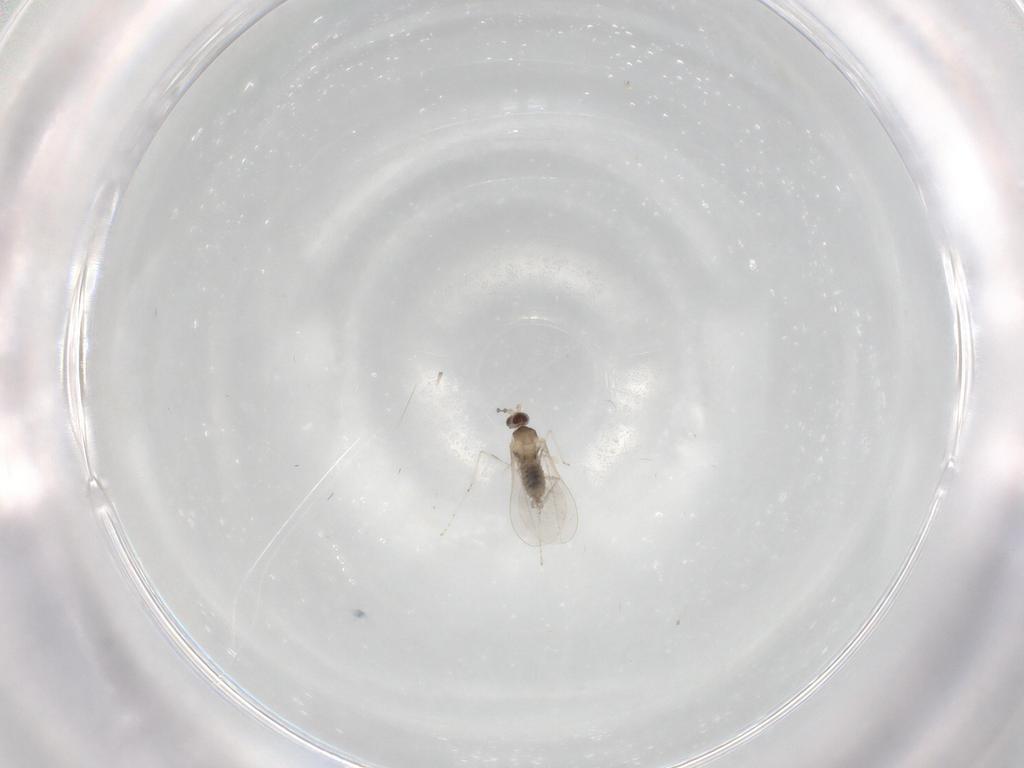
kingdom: Animalia
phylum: Arthropoda
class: Insecta
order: Diptera
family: Cecidomyiidae
